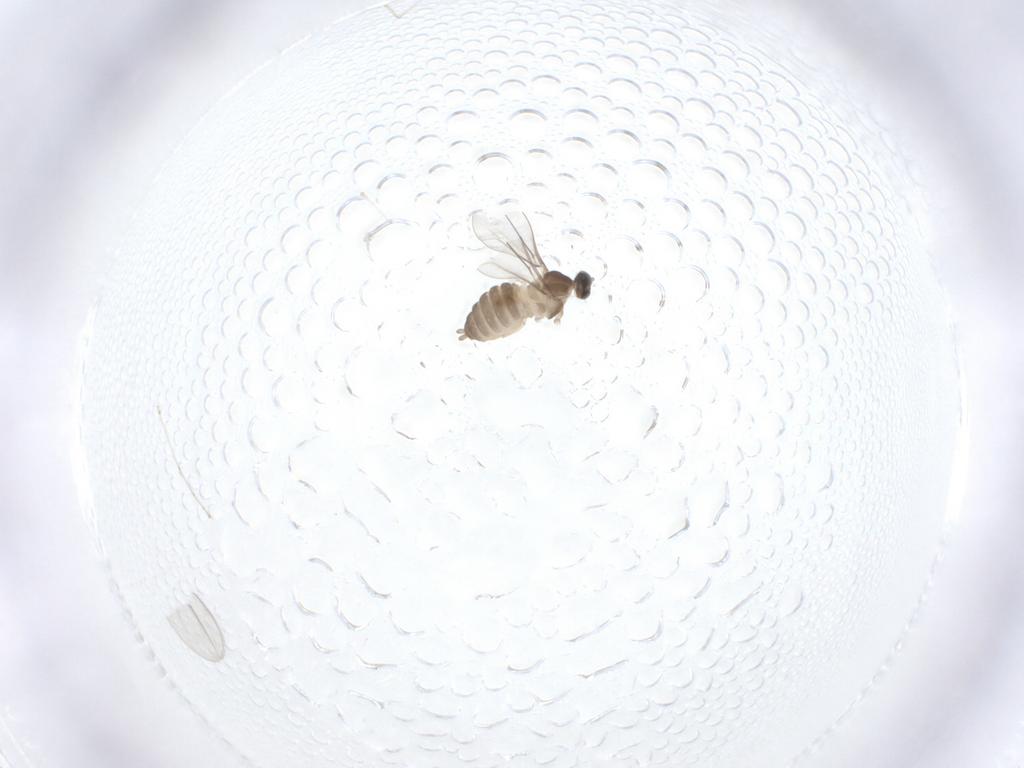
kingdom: Animalia
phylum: Arthropoda
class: Insecta
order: Diptera
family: Cecidomyiidae
